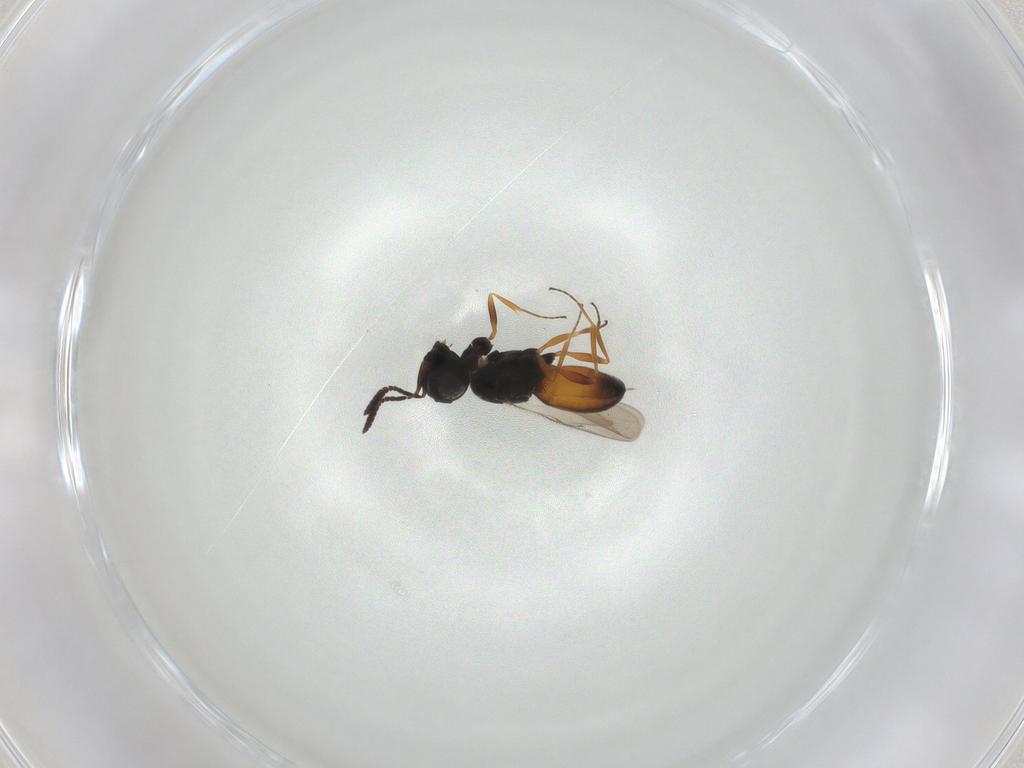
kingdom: Animalia
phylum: Arthropoda
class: Insecta
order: Hymenoptera
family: Scelionidae
